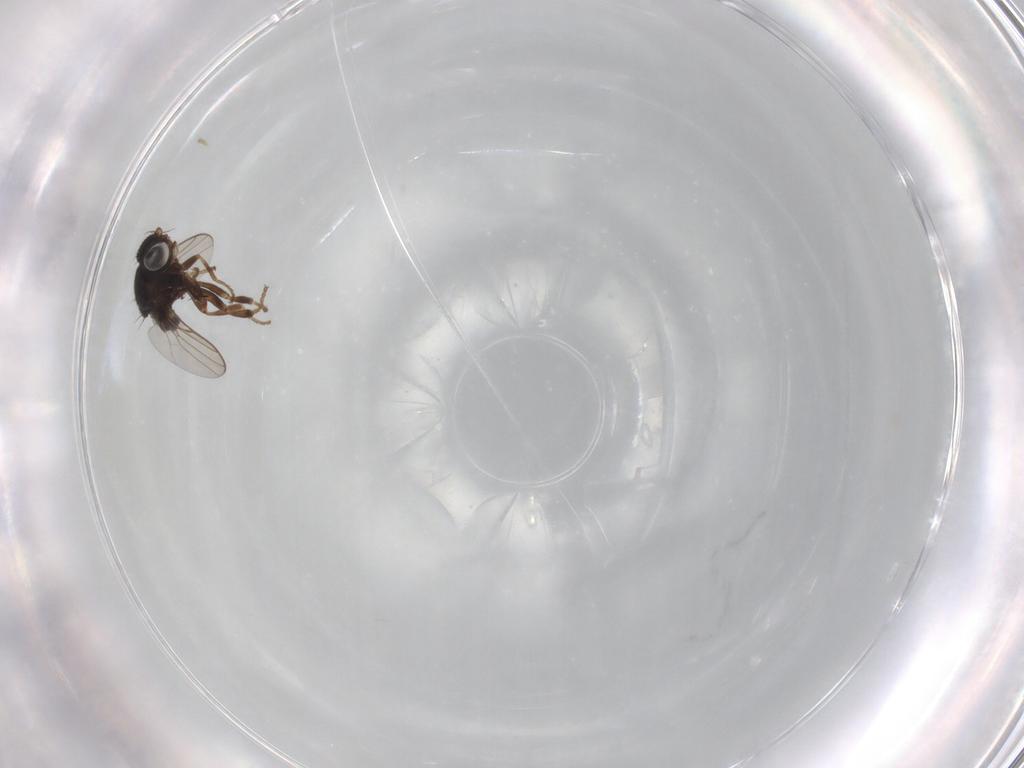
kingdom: Animalia
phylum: Arthropoda
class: Insecta
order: Diptera
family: Chloropidae
